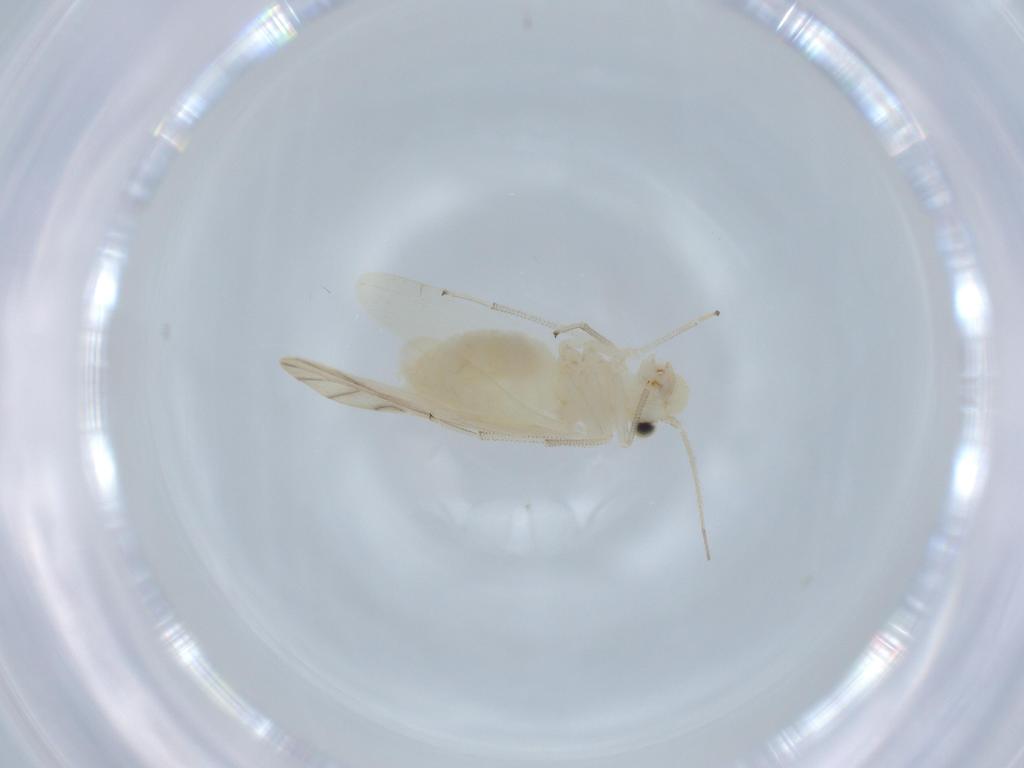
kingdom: Animalia
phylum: Arthropoda
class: Insecta
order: Psocodea
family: Caeciliusidae
